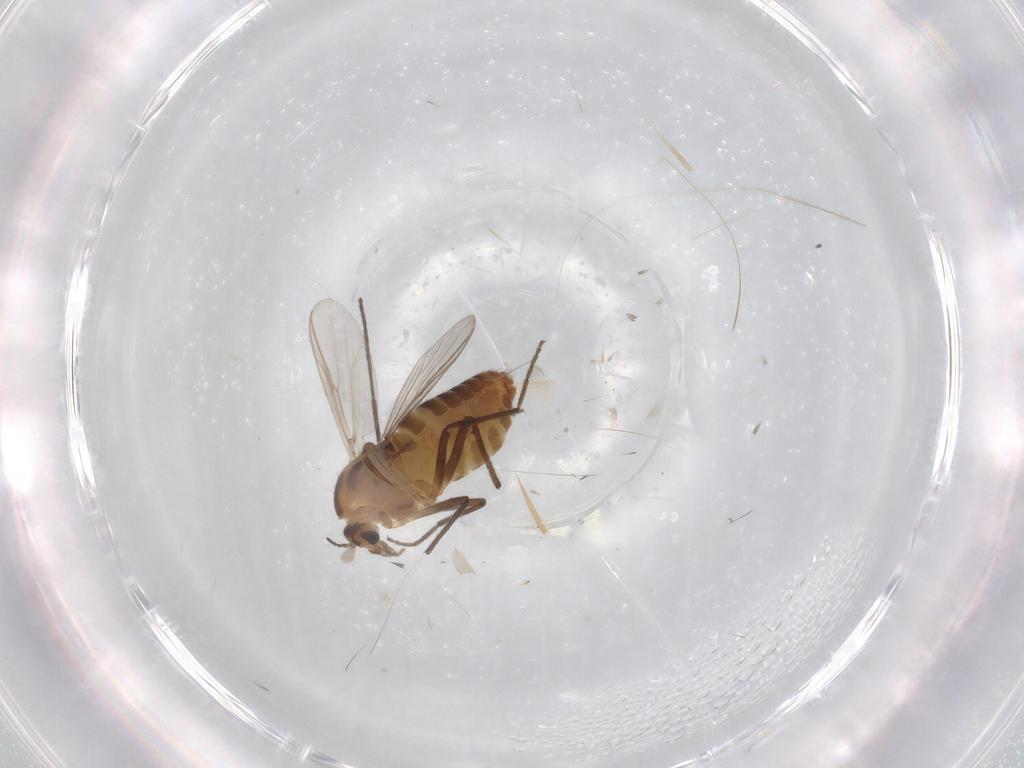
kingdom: Animalia
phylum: Arthropoda
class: Insecta
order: Diptera
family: Chironomidae
